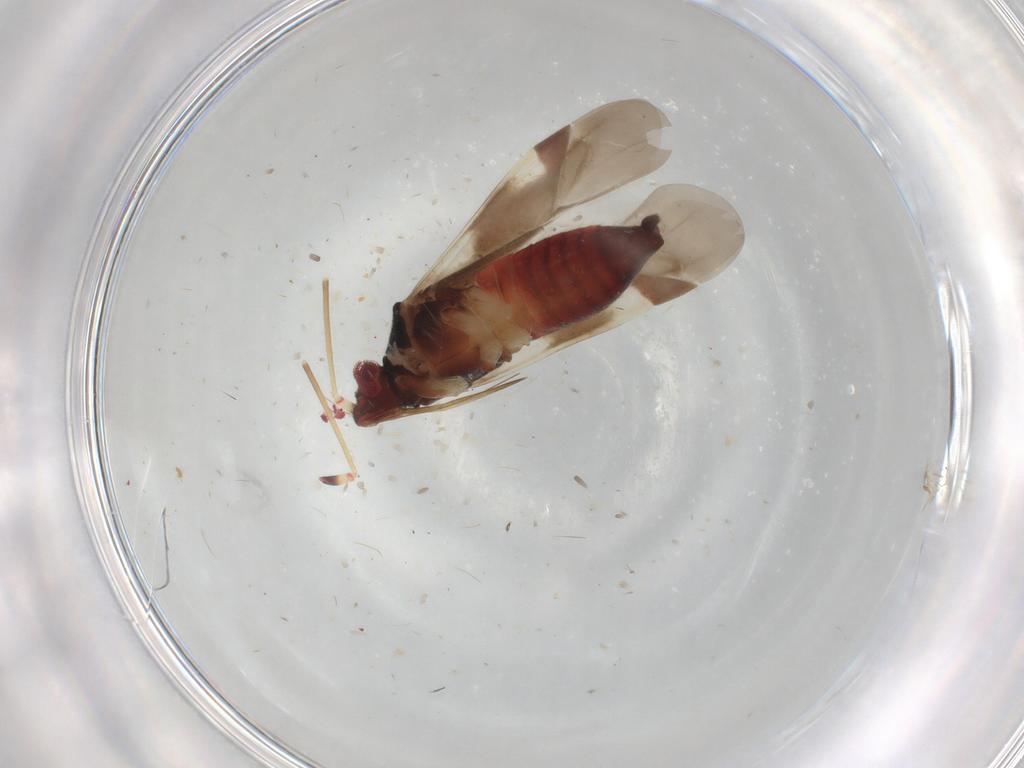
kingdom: Animalia
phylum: Arthropoda
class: Insecta
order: Hemiptera
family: Miridae
